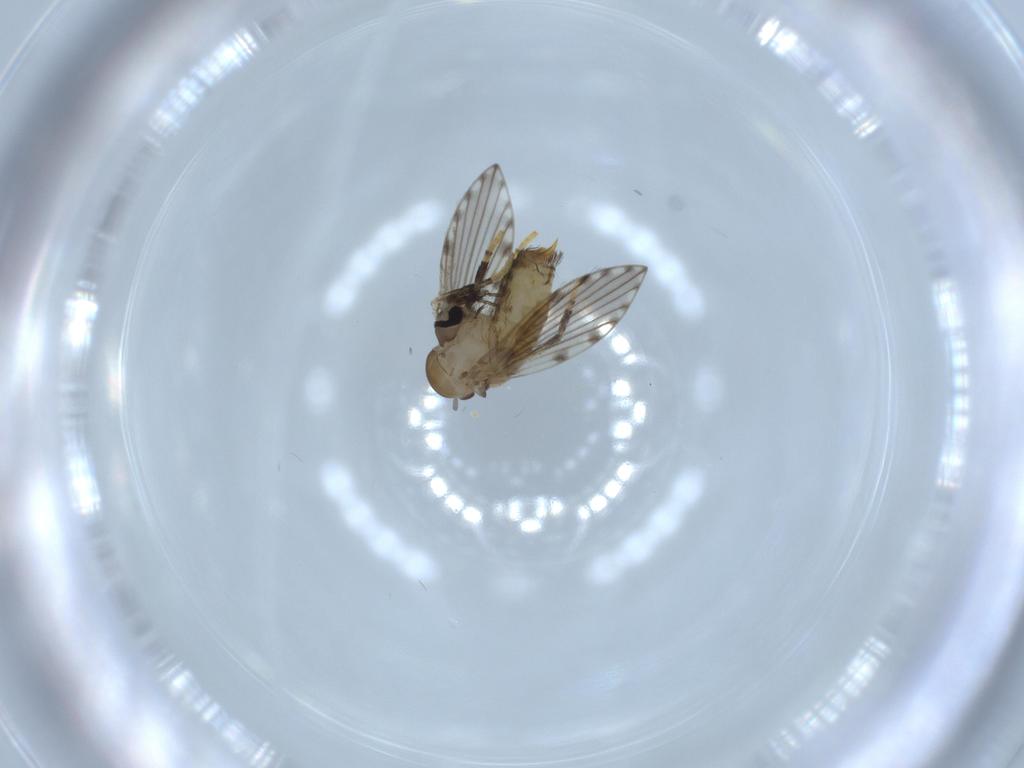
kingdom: Animalia
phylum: Arthropoda
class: Insecta
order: Diptera
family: Psychodidae
